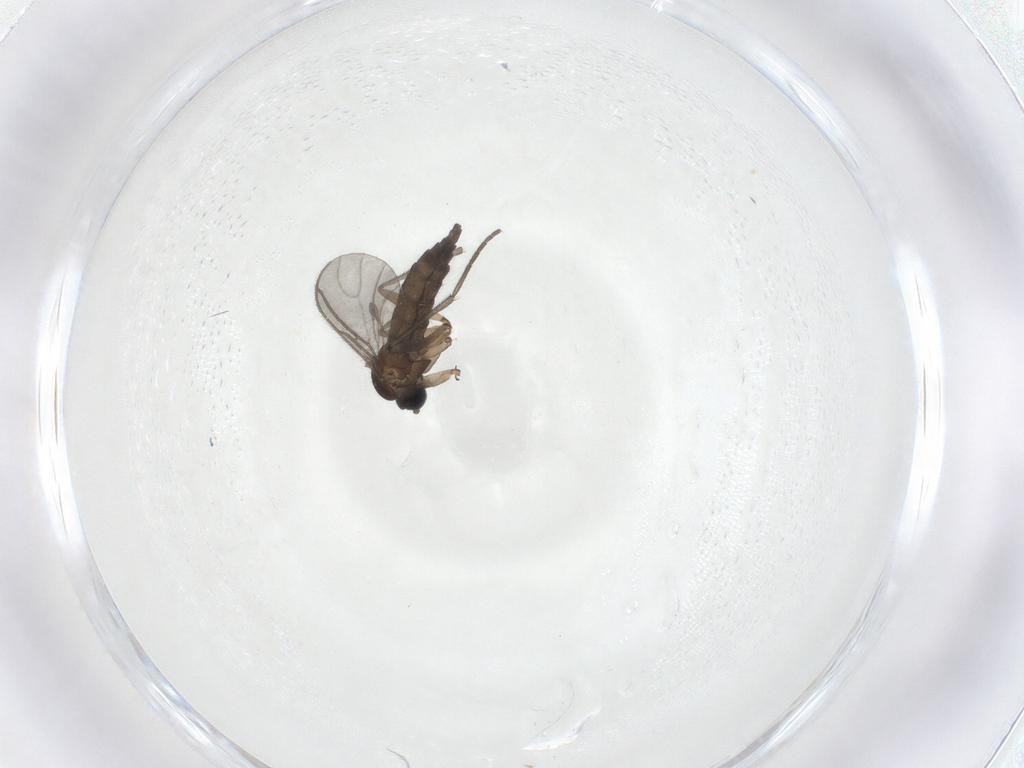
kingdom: Animalia
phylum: Arthropoda
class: Insecta
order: Diptera
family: Sciaridae
